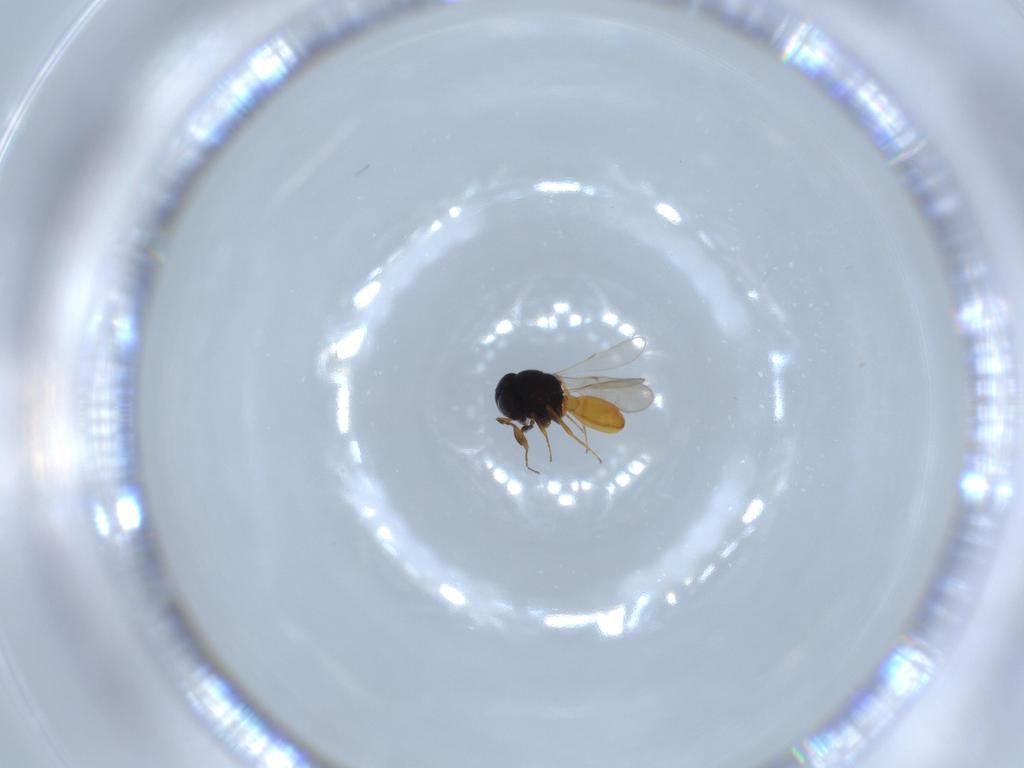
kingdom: Animalia
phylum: Arthropoda
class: Insecta
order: Hymenoptera
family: Scelionidae
